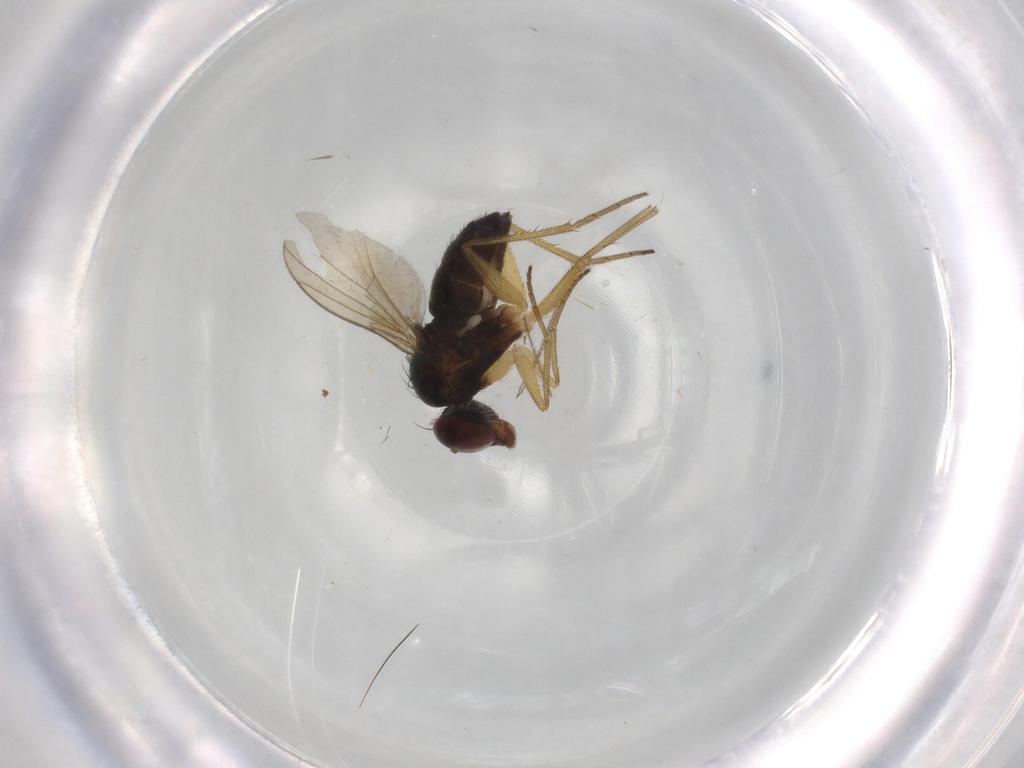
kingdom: Animalia
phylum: Arthropoda
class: Insecta
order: Diptera
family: Dolichopodidae
